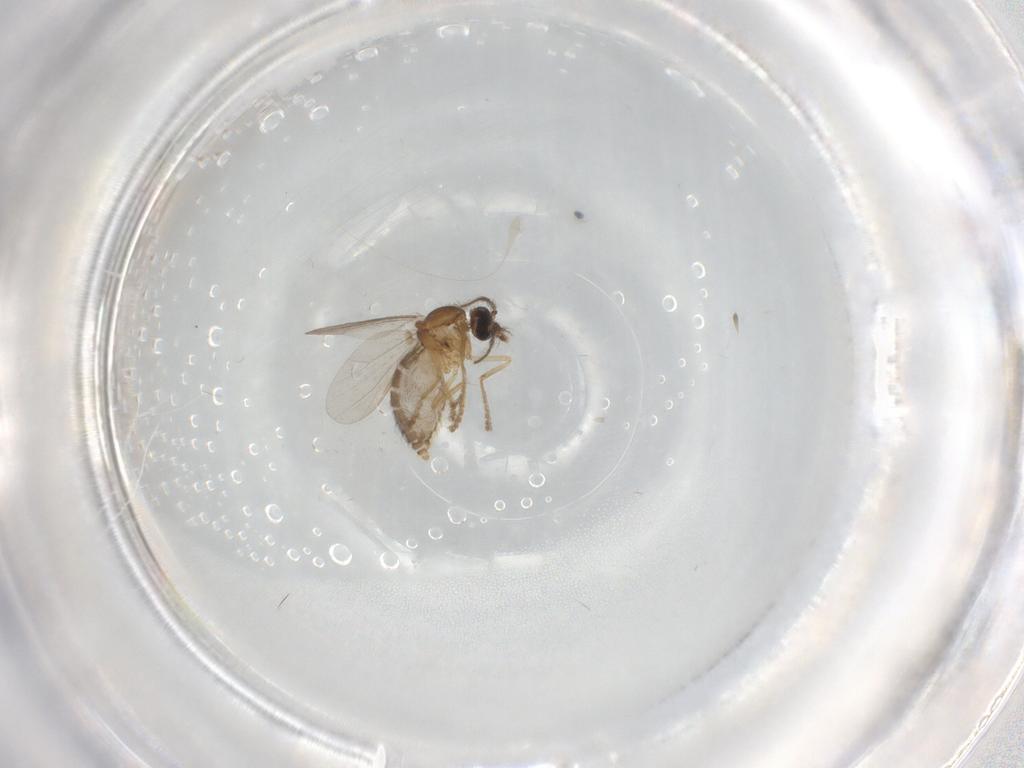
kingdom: Animalia
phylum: Arthropoda
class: Insecta
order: Diptera
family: Ceratopogonidae
